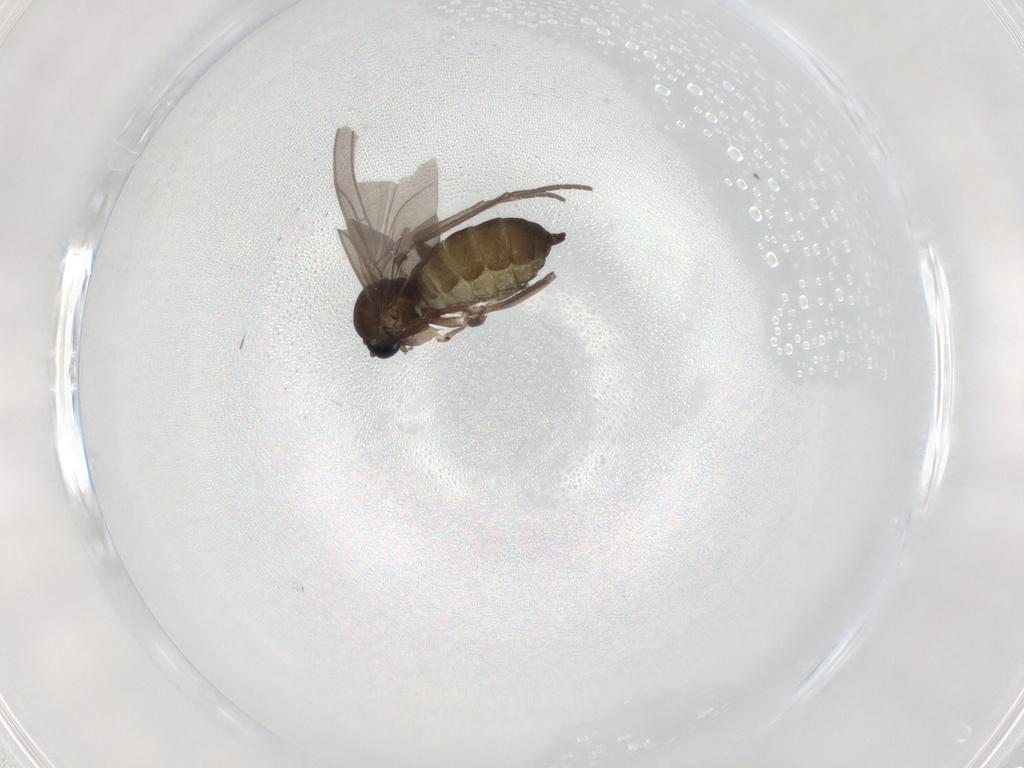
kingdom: Animalia
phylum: Arthropoda
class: Insecta
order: Diptera
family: Sciaridae
